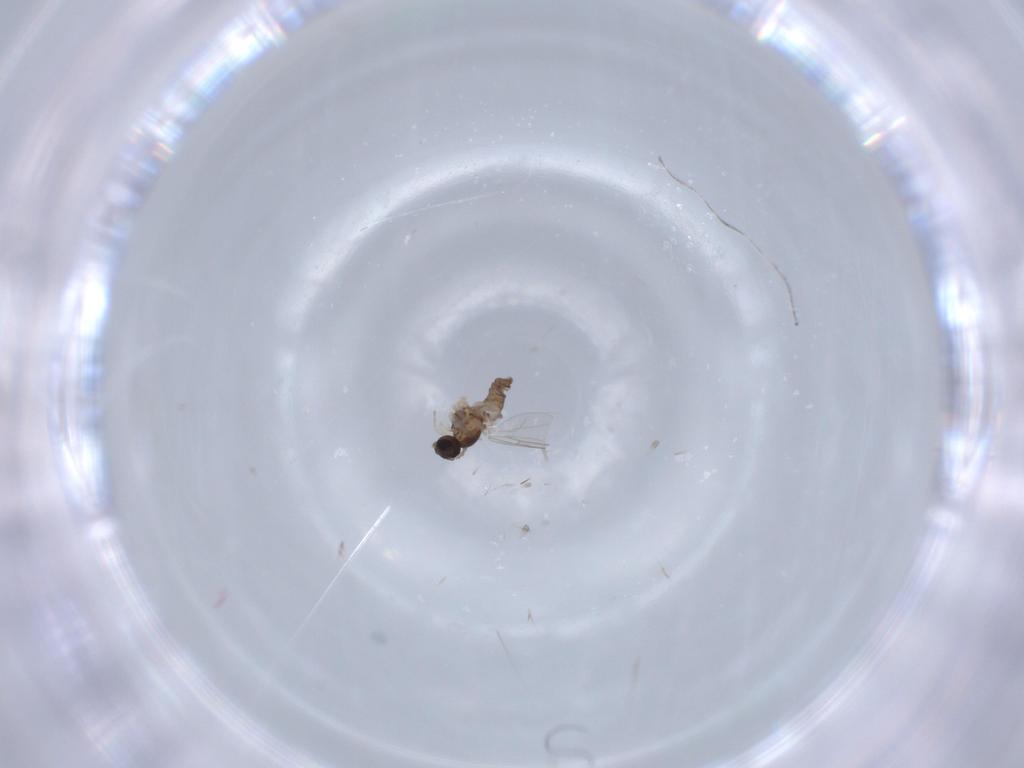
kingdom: Animalia
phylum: Arthropoda
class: Insecta
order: Diptera
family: Cecidomyiidae
